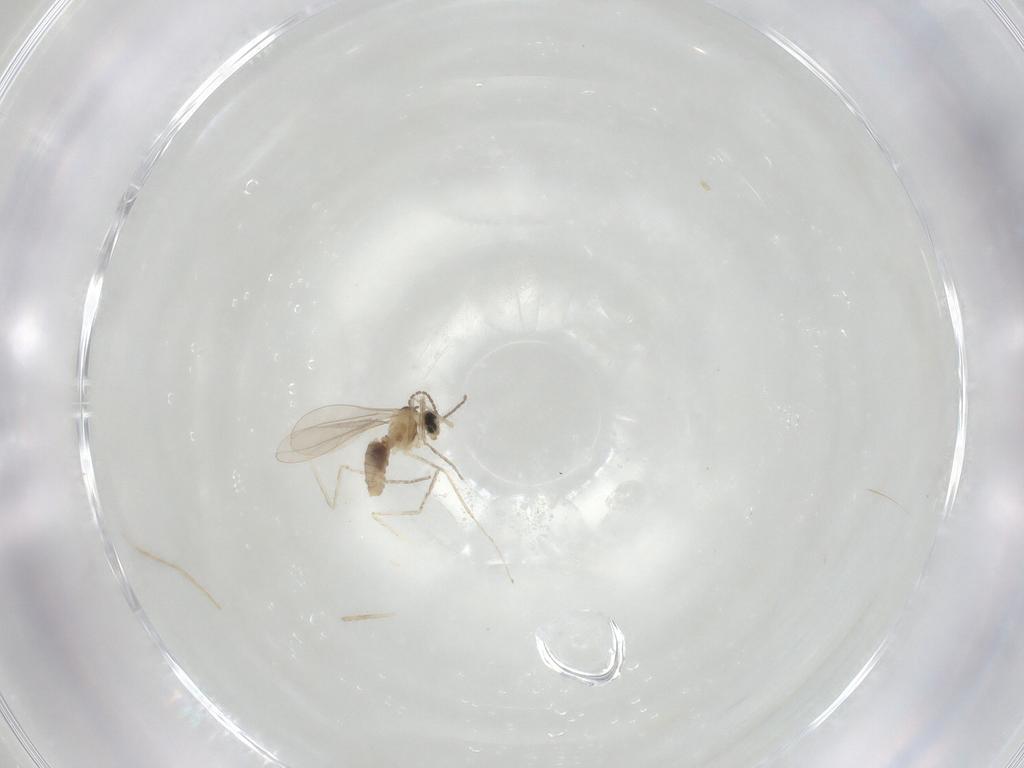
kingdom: Animalia
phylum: Arthropoda
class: Insecta
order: Diptera
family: Cecidomyiidae
